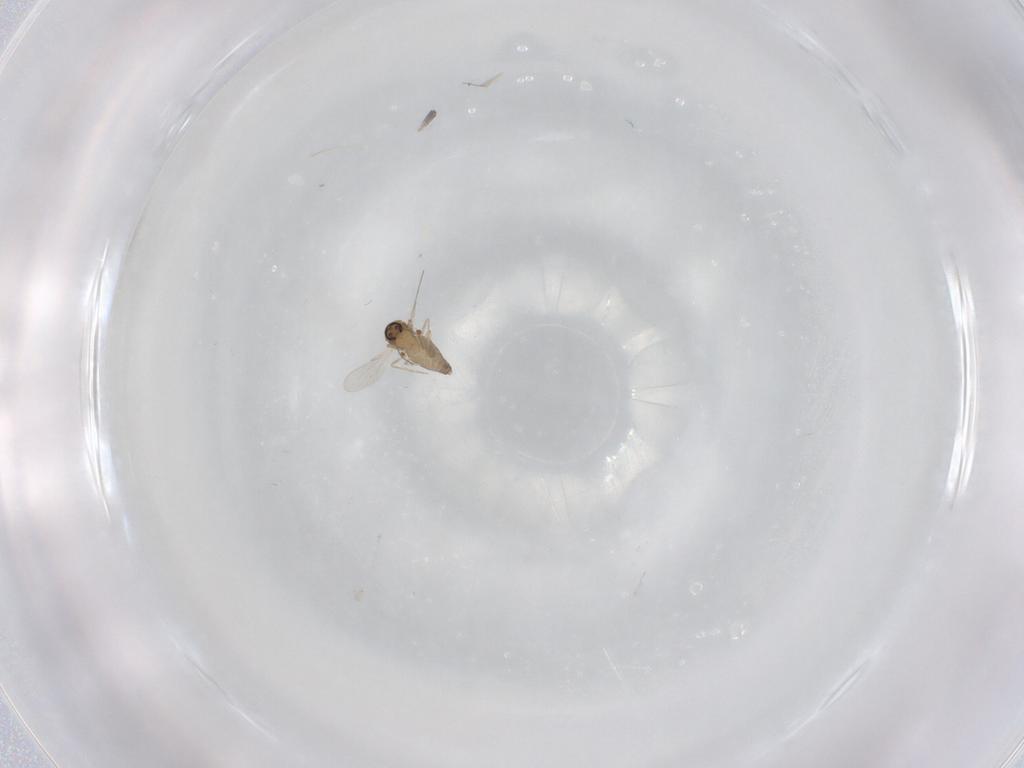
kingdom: Animalia
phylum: Arthropoda
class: Insecta
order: Diptera
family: Ceratopogonidae
